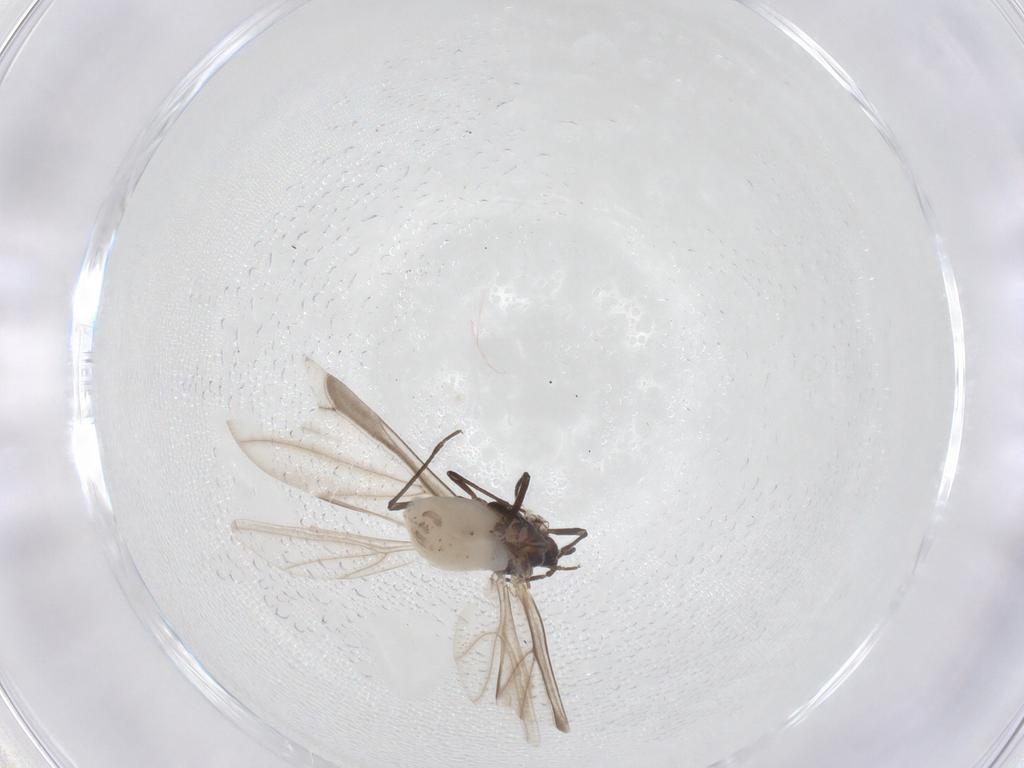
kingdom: Animalia
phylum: Arthropoda
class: Insecta
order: Hemiptera
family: Aphididae
